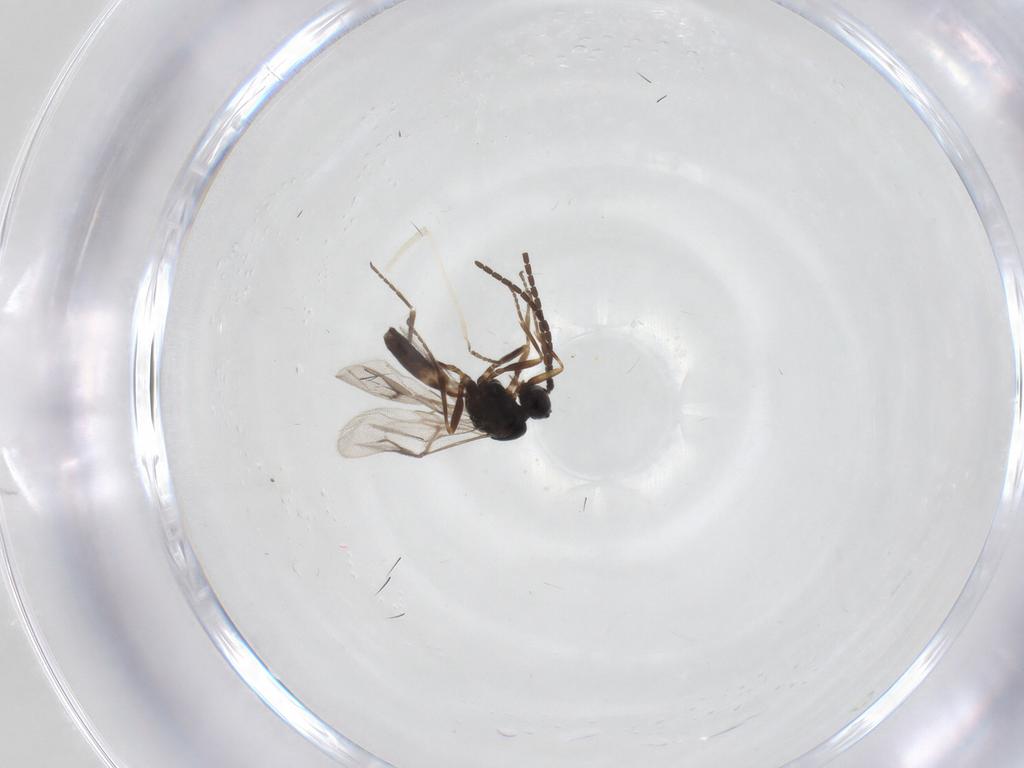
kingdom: Animalia
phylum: Arthropoda
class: Insecta
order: Hymenoptera
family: Braconidae
